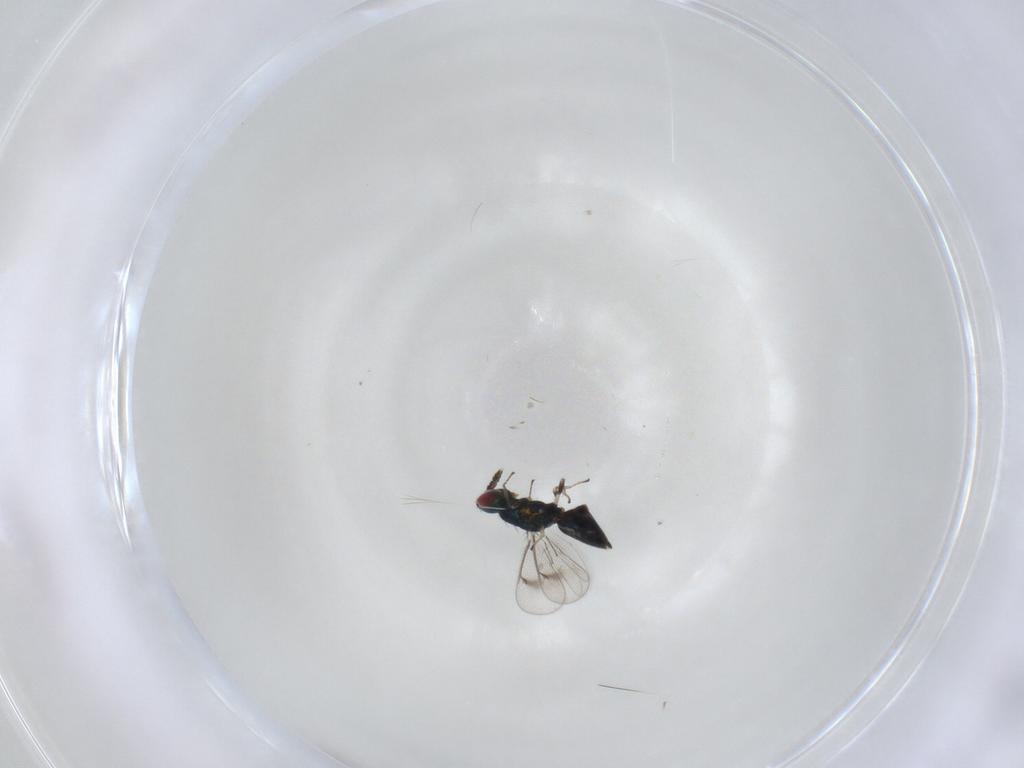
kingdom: Animalia
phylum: Arthropoda
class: Insecta
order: Hymenoptera
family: Eulophidae
